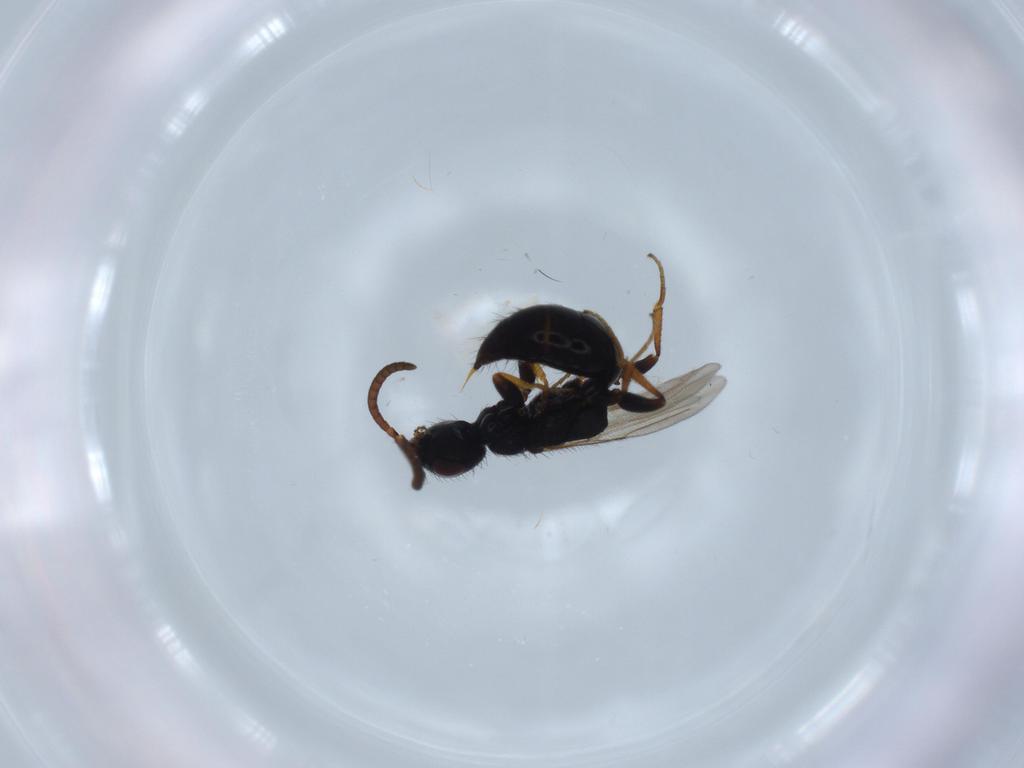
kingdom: Animalia
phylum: Arthropoda
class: Insecta
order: Hymenoptera
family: Bethylidae
